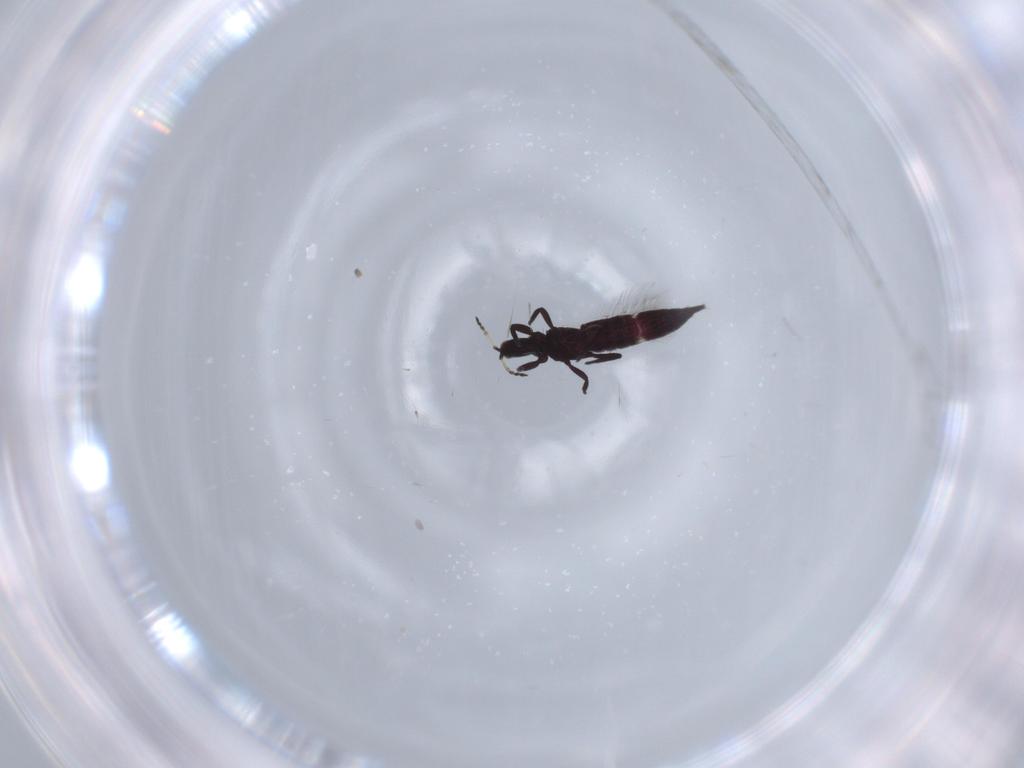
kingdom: Animalia
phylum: Arthropoda
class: Insecta
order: Thysanoptera
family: Phlaeothripidae
